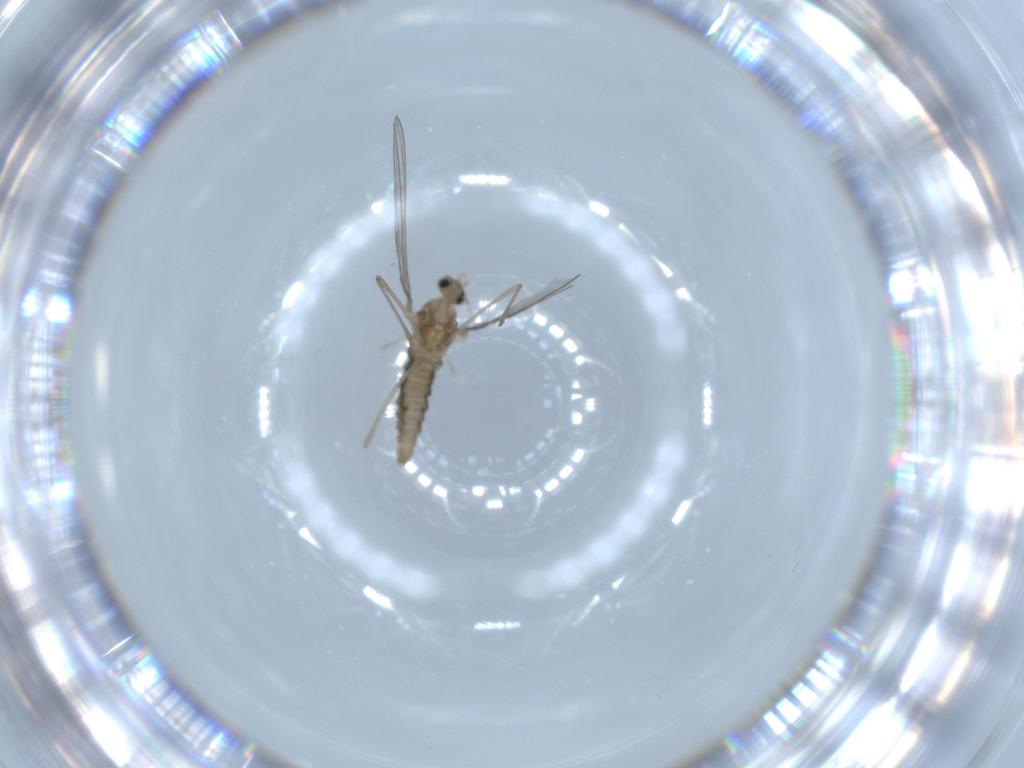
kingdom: Animalia
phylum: Arthropoda
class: Insecta
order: Diptera
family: Cecidomyiidae
